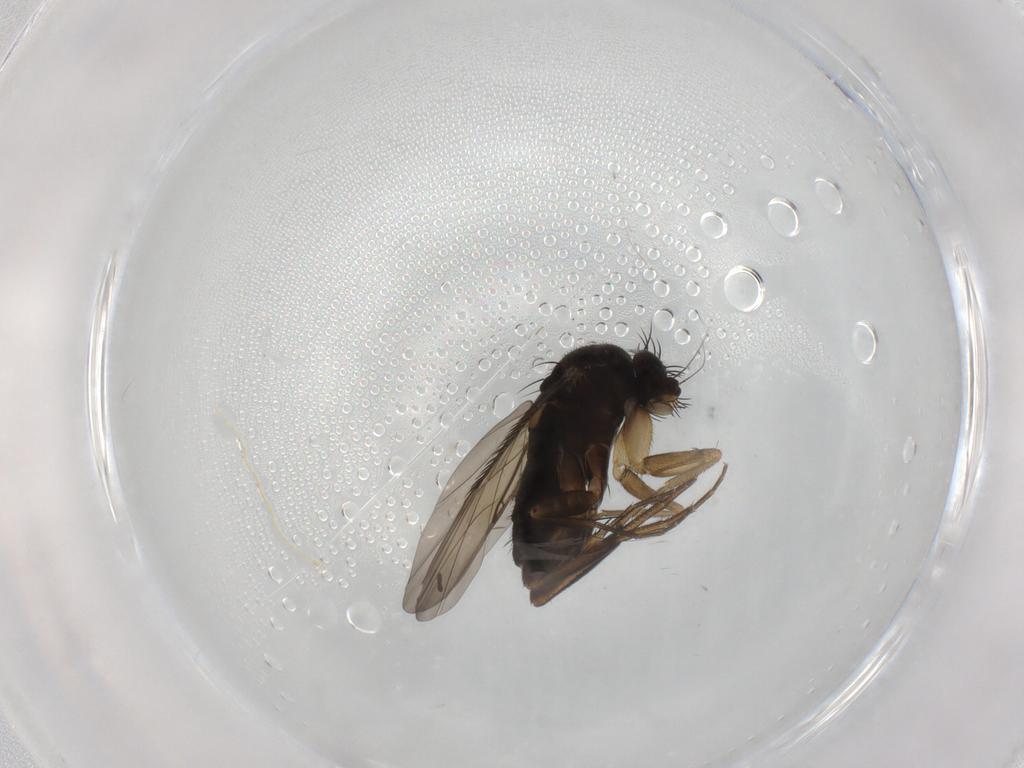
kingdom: Animalia
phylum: Arthropoda
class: Insecta
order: Diptera
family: Phoridae
